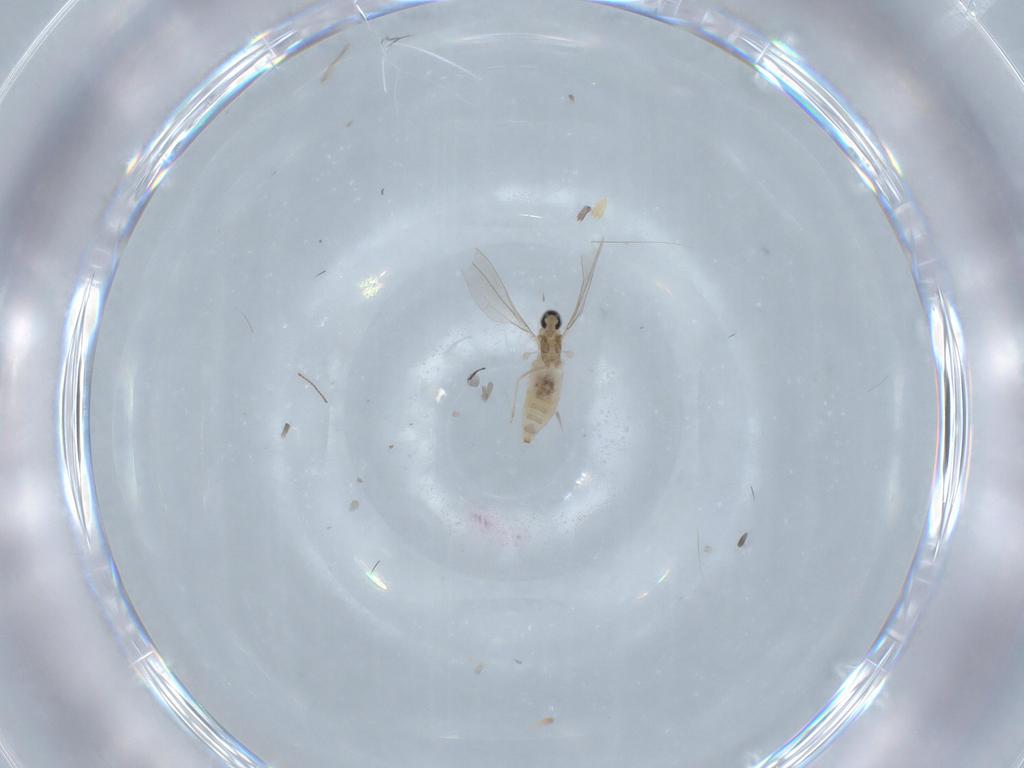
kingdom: Animalia
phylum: Arthropoda
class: Insecta
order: Diptera
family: Cecidomyiidae
